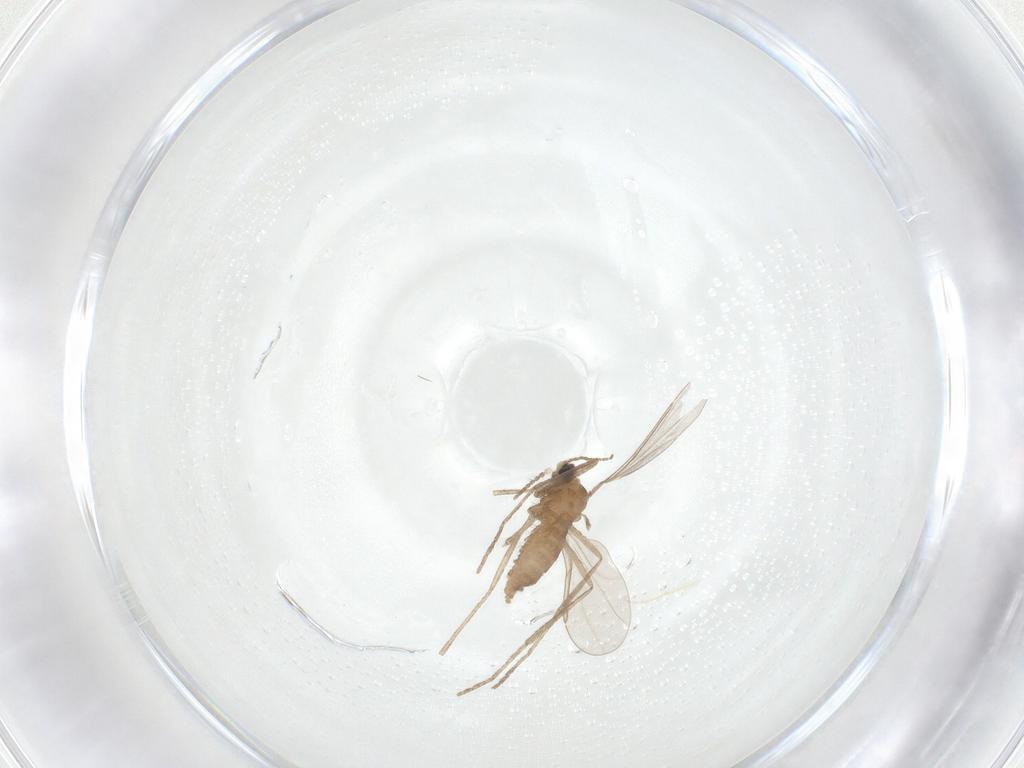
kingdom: Animalia
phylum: Arthropoda
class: Insecta
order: Diptera
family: Cecidomyiidae
